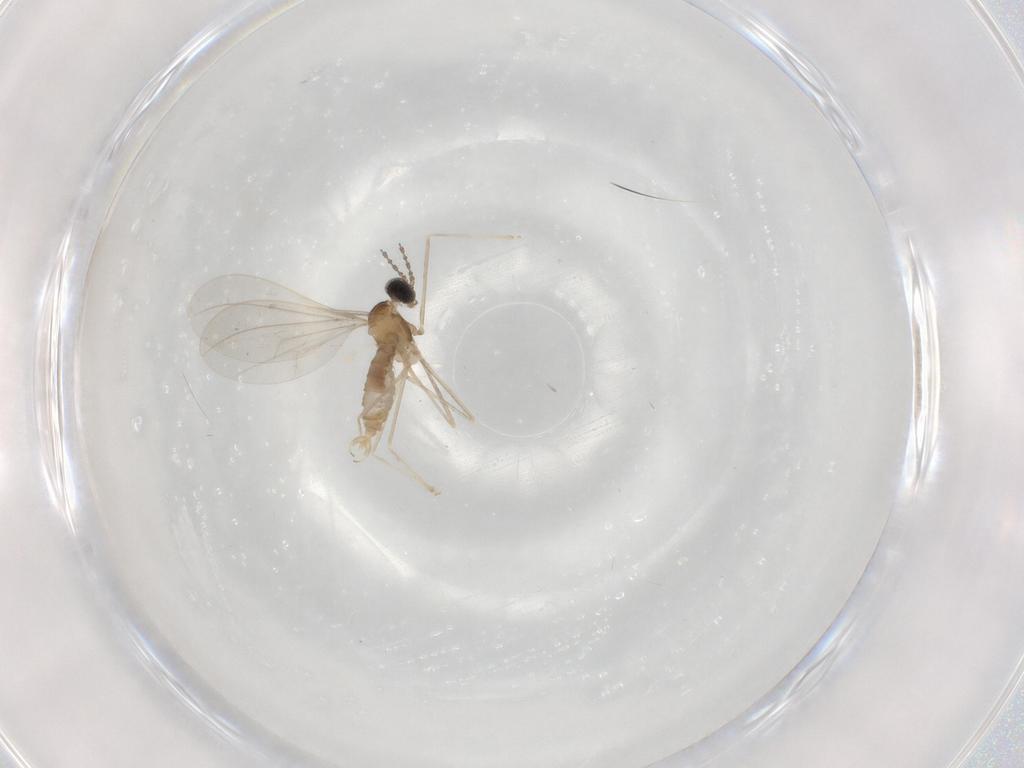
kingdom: Animalia
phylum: Arthropoda
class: Insecta
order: Diptera
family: Cecidomyiidae
